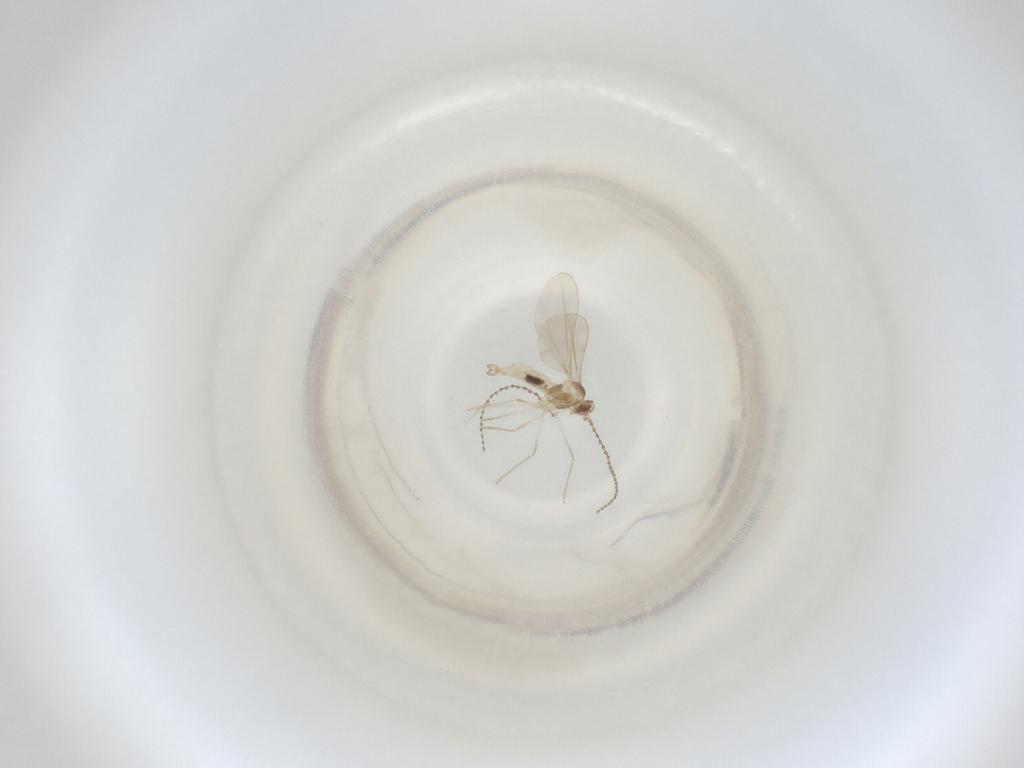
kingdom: Animalia
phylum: Arthropoda
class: Insecta
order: Diptera
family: Cecidomyiidae
